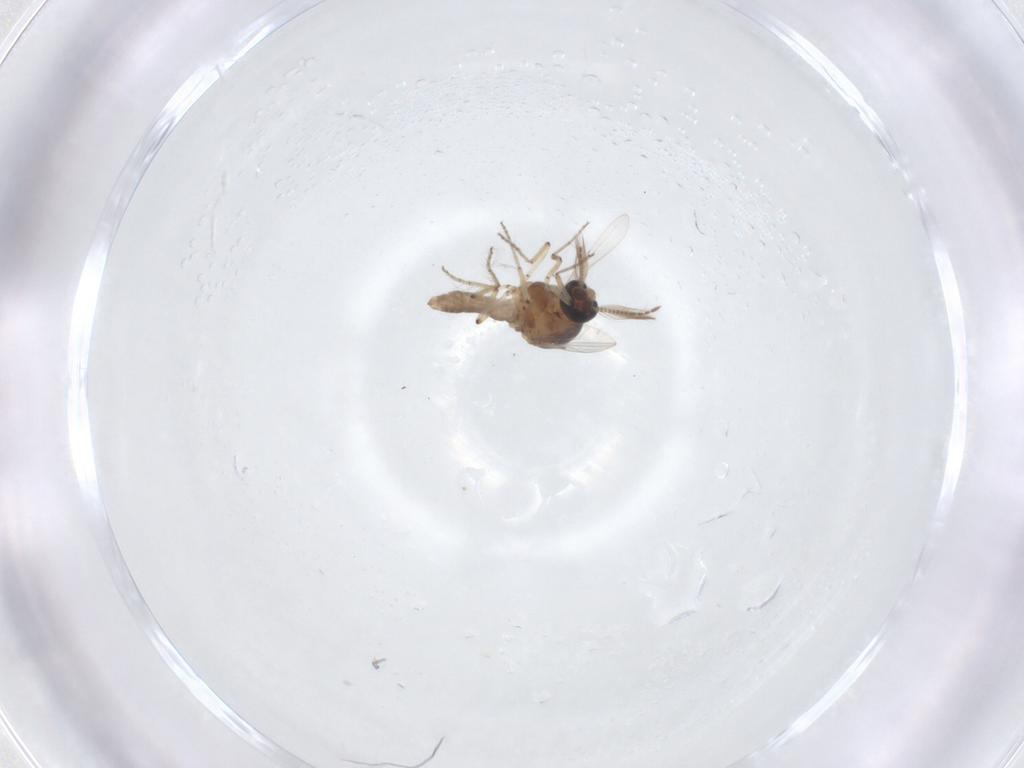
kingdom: Animalia
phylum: Arthropoda
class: Insecta
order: Diptera
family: Ceratopogonidae
